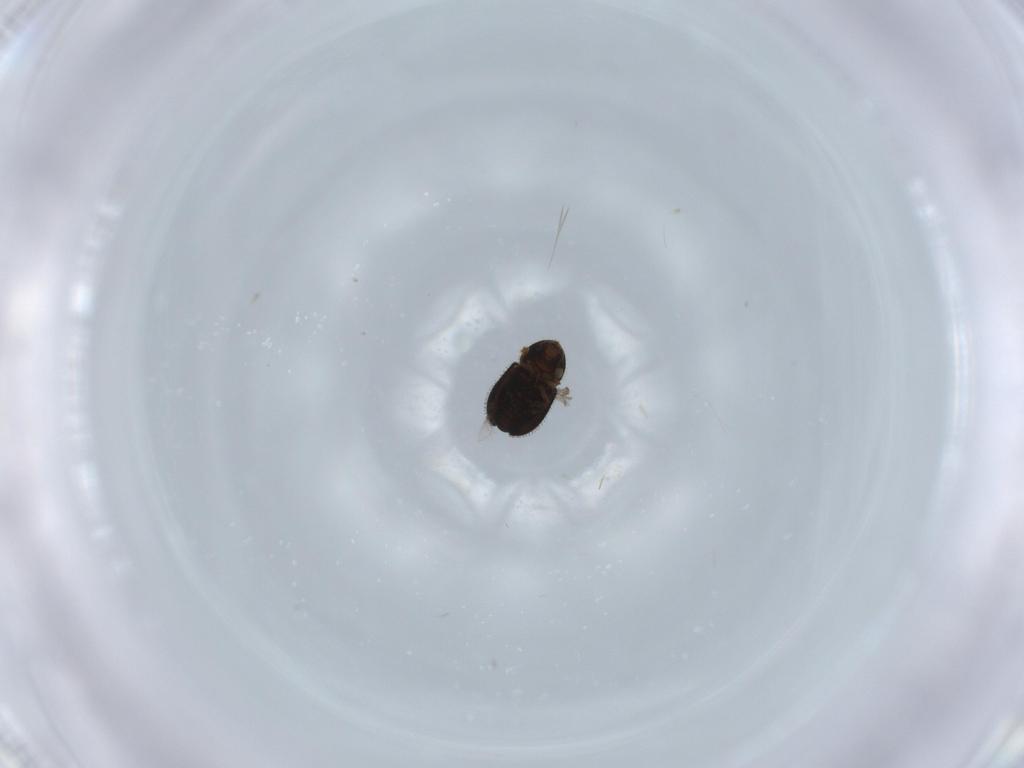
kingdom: Animalia
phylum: Arthropoda
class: Insecta
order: Coleoptera
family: Curculionidae
